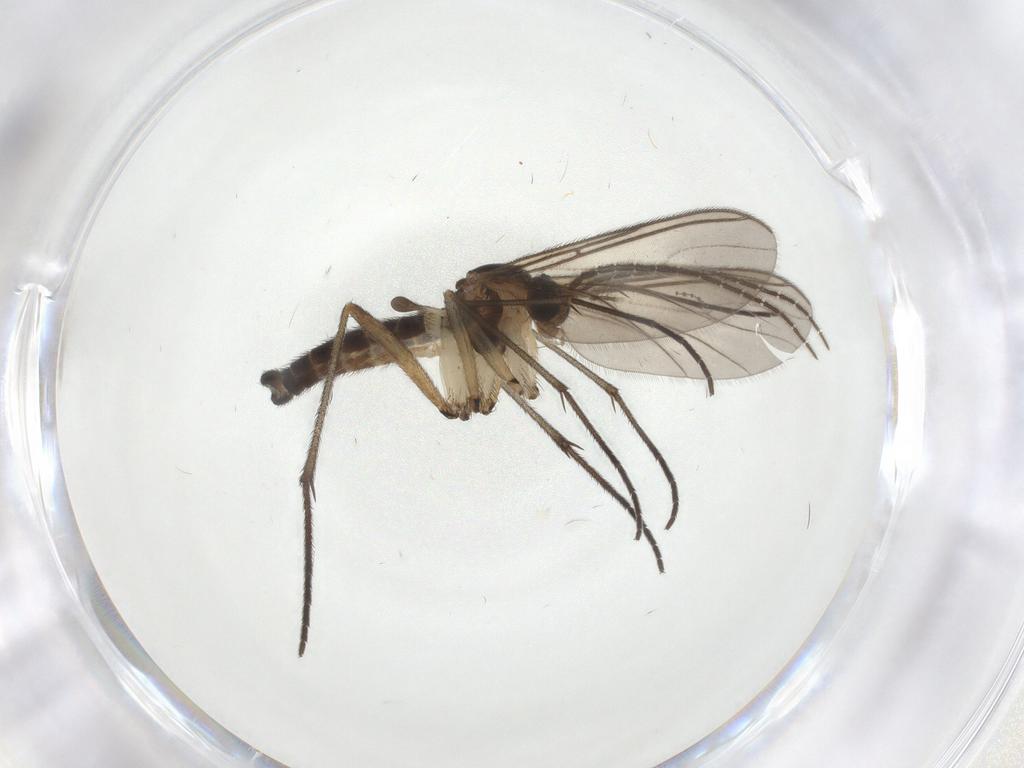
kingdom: Animalia
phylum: Arthropoda
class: Insecta
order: Diptera
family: Sciaridae
